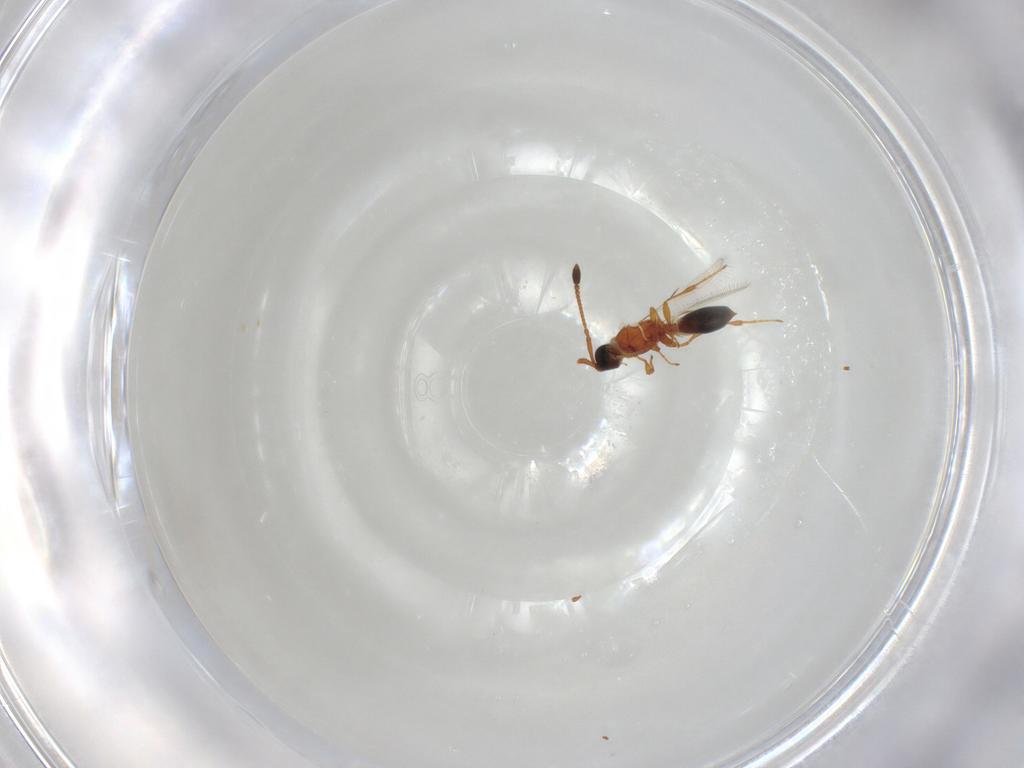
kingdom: Animalia
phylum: Arthropoda
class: Insecta
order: Hymenoptera
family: Diapriidae
